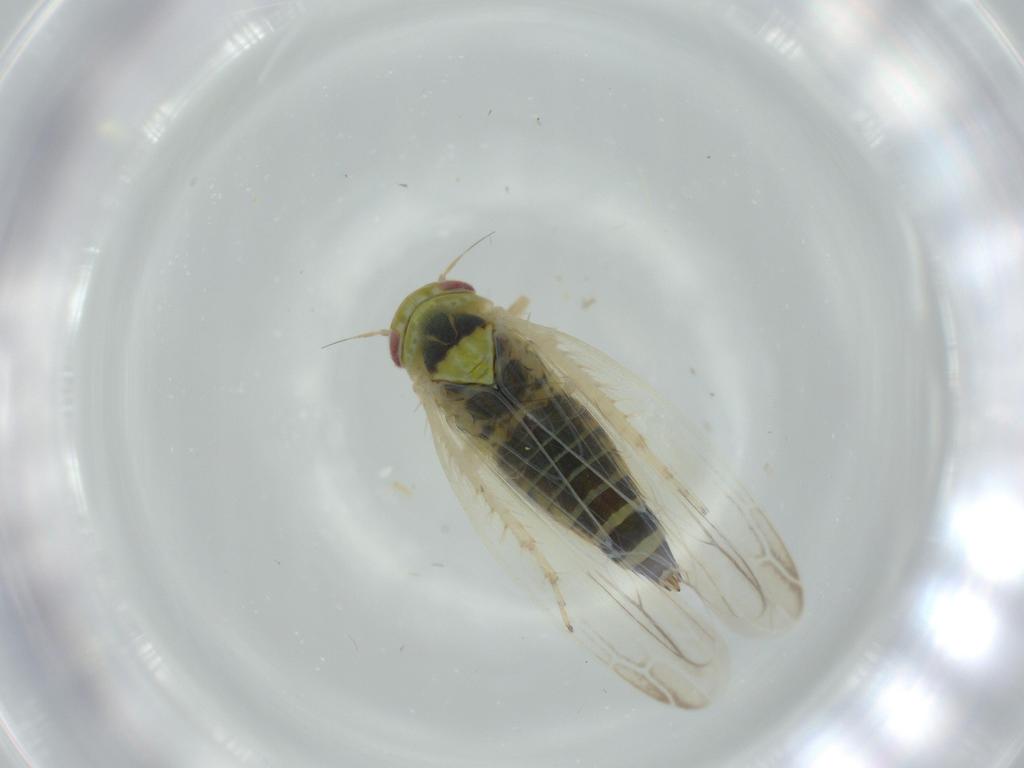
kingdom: Animalia
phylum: Arthropoda
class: Insecta
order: Hemiptera
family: Cicadellidae
